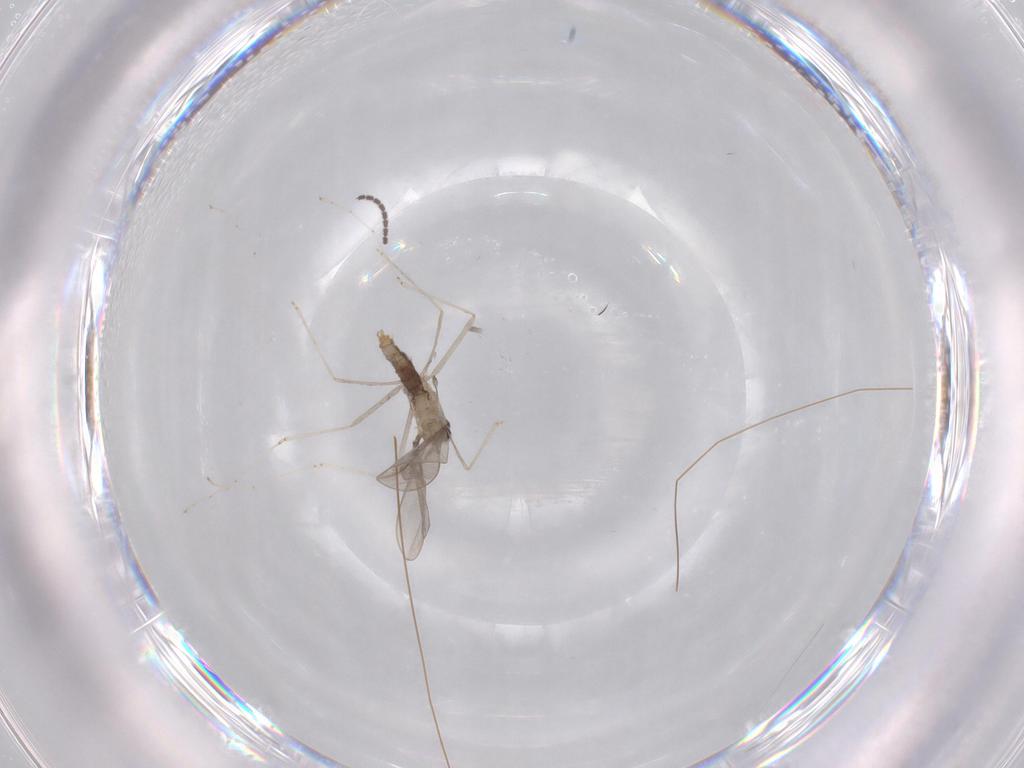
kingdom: Animalia
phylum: Arthropoda
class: Insecta
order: Diptera
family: Sciaridae
